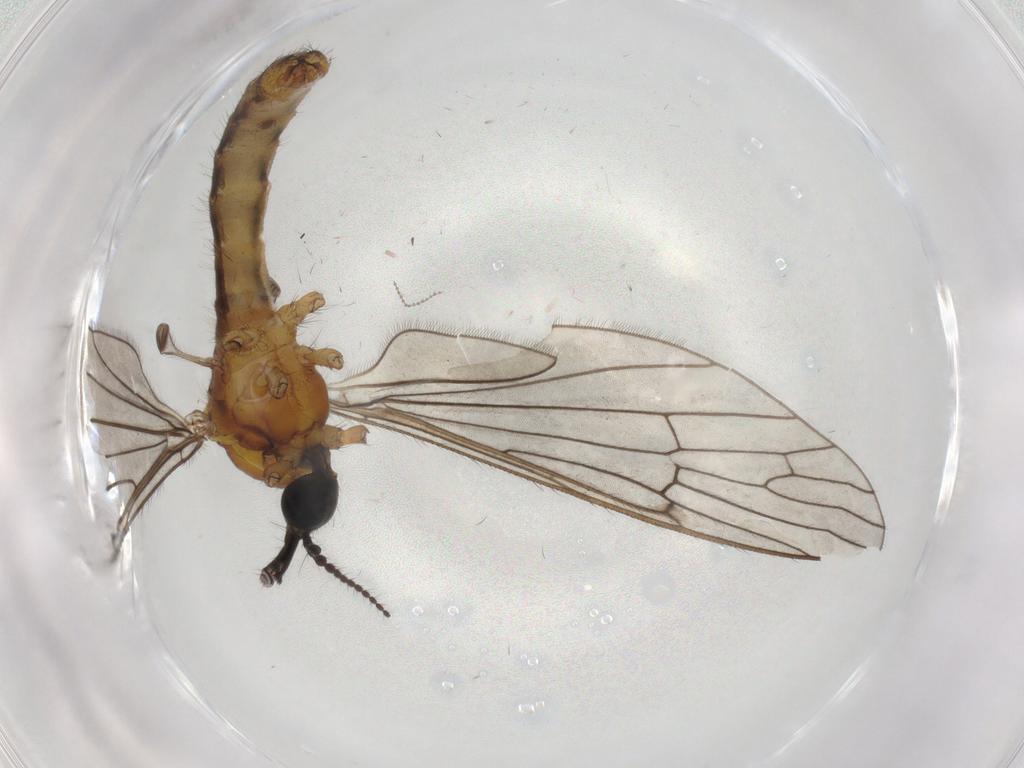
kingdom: Animalia
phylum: Arthropoda
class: Insecta
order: Diptera
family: Limoniidae
